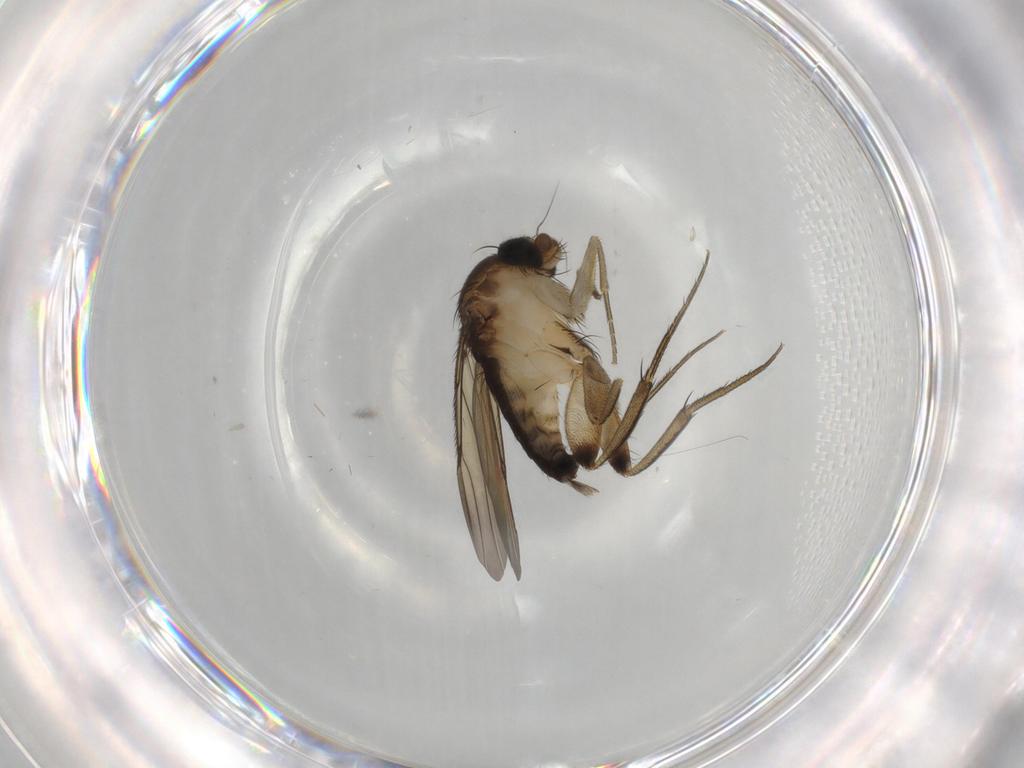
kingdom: Animalia
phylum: Arthropoda
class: Insecta
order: Diptera
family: Phoridae
